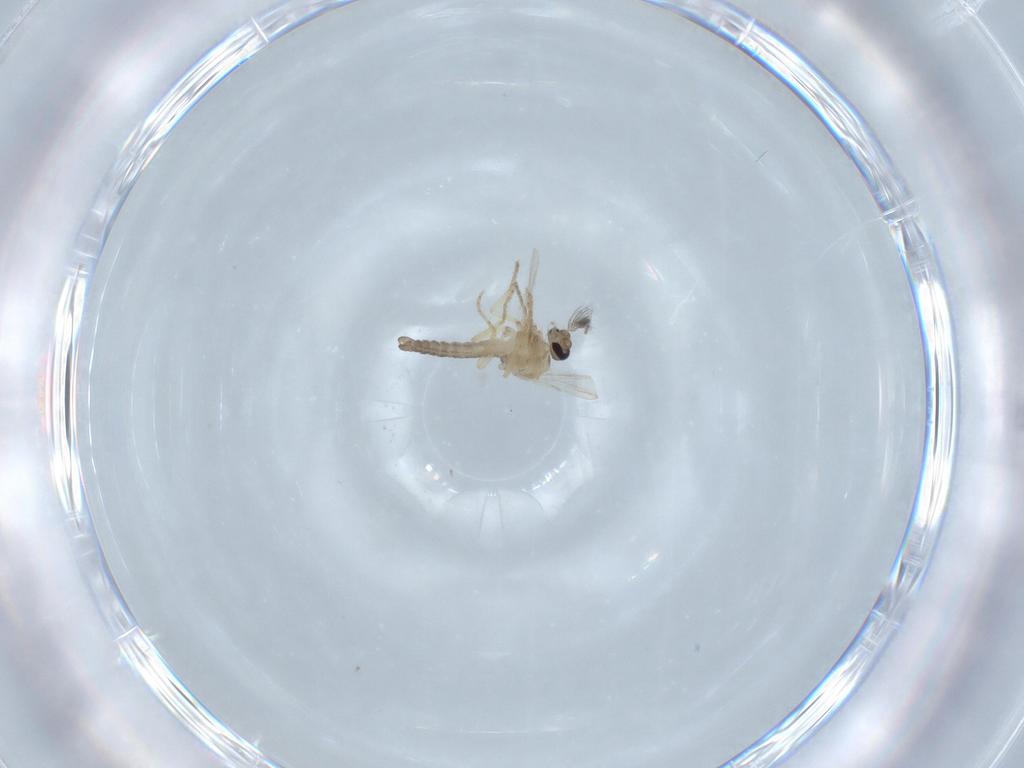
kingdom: Animalia
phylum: Arthropoda
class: Insecta
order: Diptera
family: Ceratopogonidae
